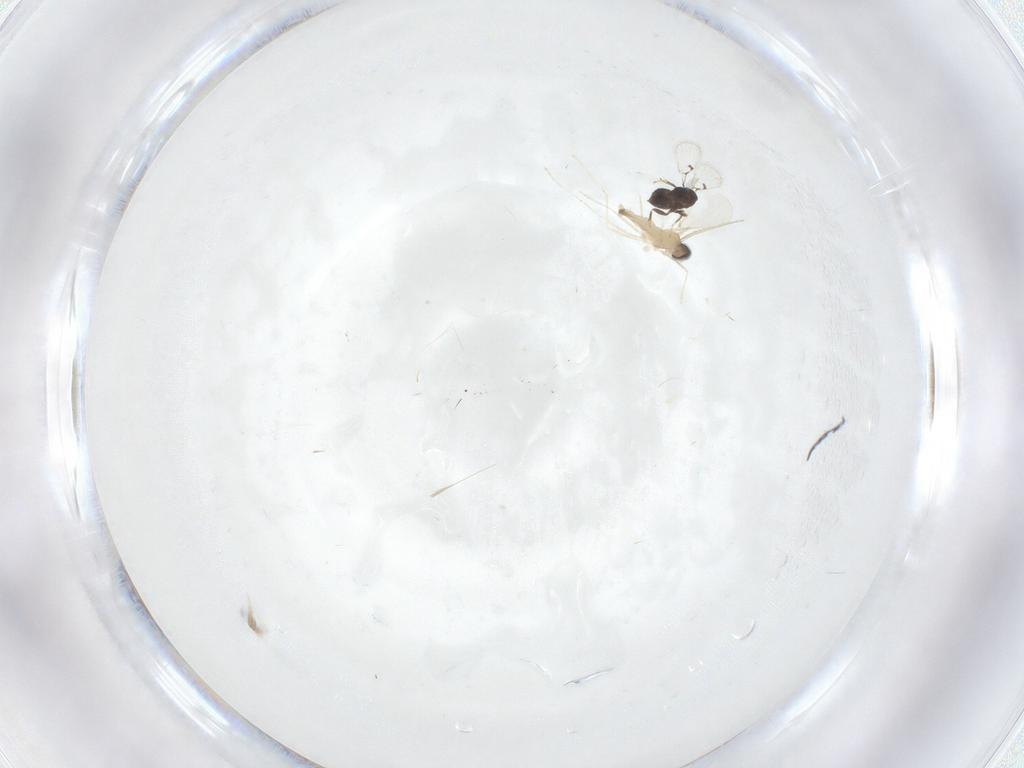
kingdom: Animalia
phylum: Arthropoda
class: Insecta
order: Diptera
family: Cecidomyiidae
